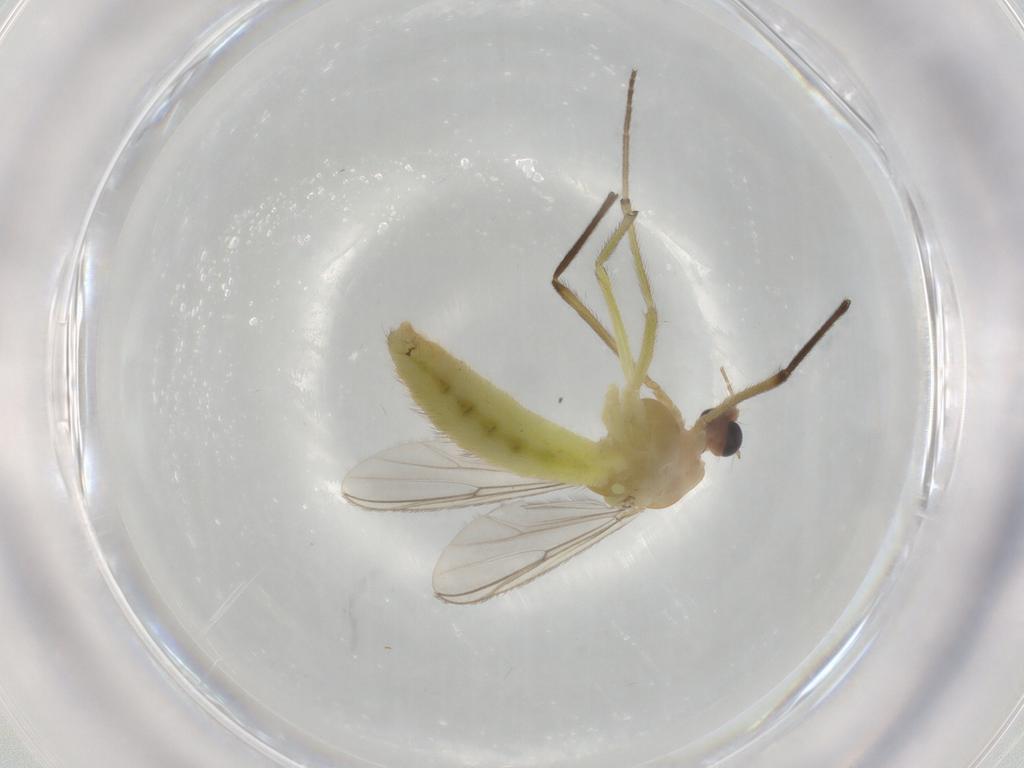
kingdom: Animalia
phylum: Arthropoda
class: Insecta
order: Diptera
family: Chironomidae
